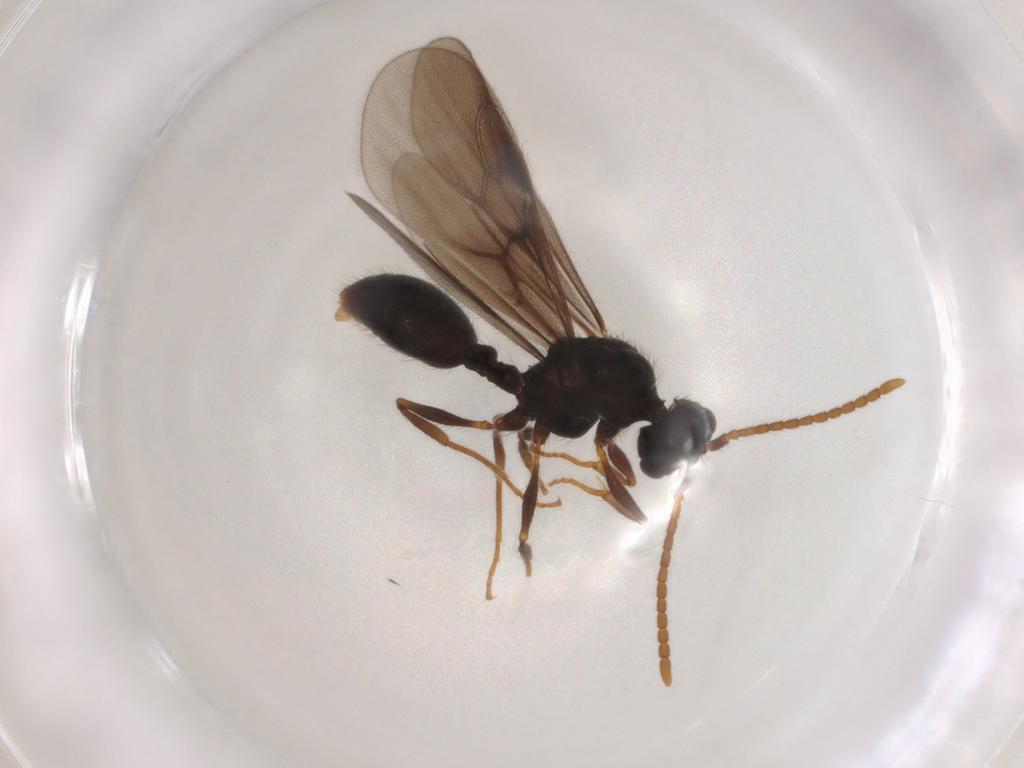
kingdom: Animalia
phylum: Arthropoda
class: Insecta
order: Hymenoptera
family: Formicidae
